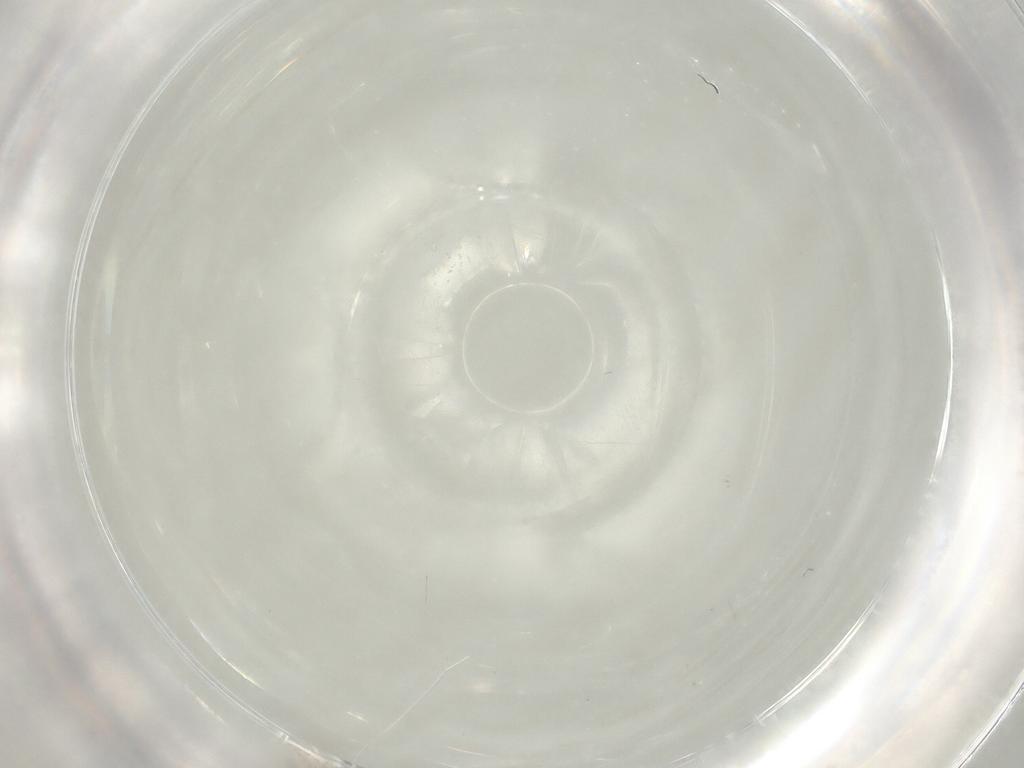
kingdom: Animalia
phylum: Arthropoda
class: Insecta
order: Hymenoptera
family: Mymaridae
